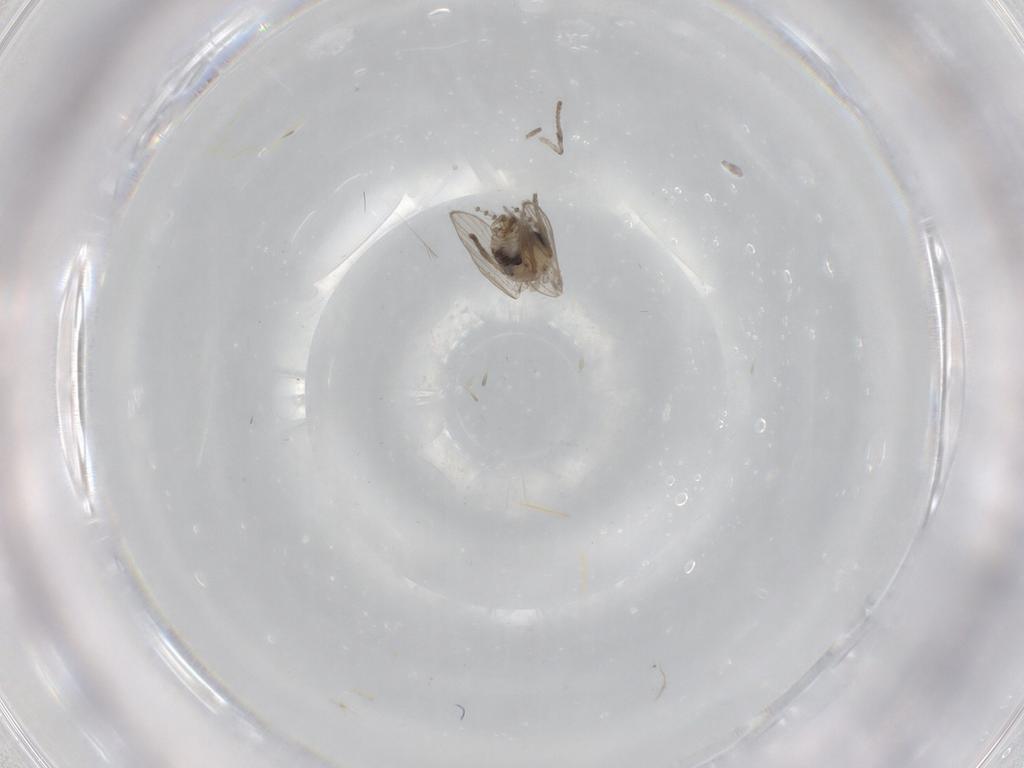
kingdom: Animalia
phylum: Arthropoda
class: Insecta
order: Diptera
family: Psychodidae
